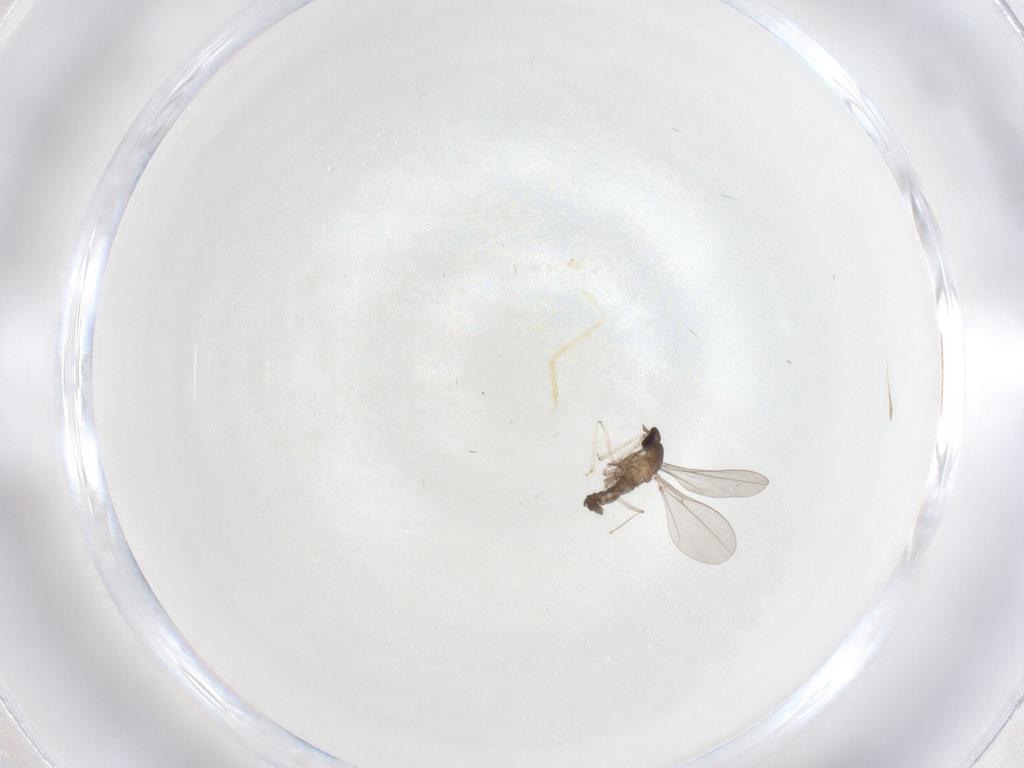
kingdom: Animalia
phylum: Arthropoda
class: Insecta
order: Diptera
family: Cecidomyiidae
